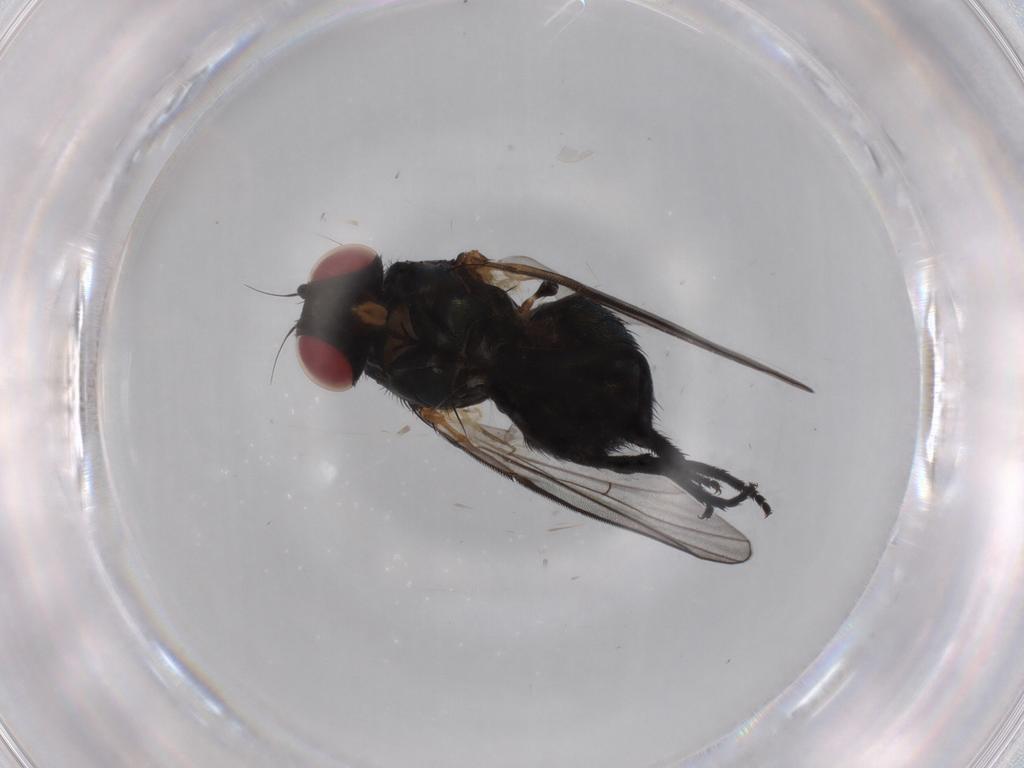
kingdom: Animalia
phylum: Arthropoda
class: Insecta
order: Diptera
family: Agromyzidae
